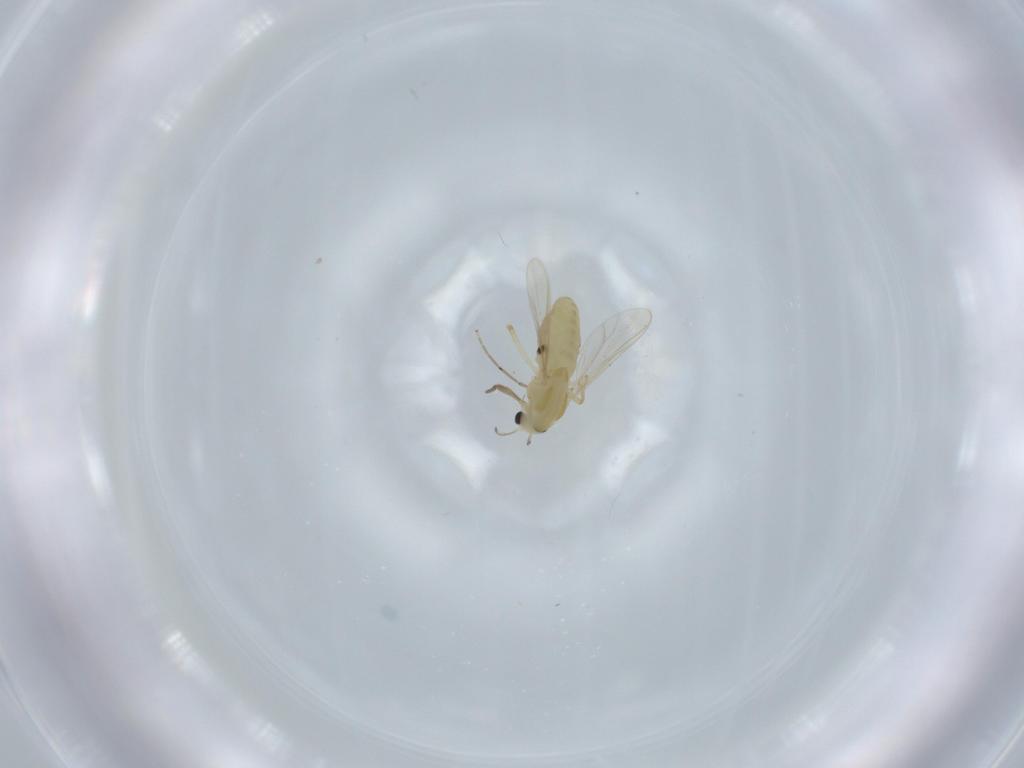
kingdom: Animalia
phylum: Arthropoda
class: Insecta
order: Diptera
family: Chironomidae
